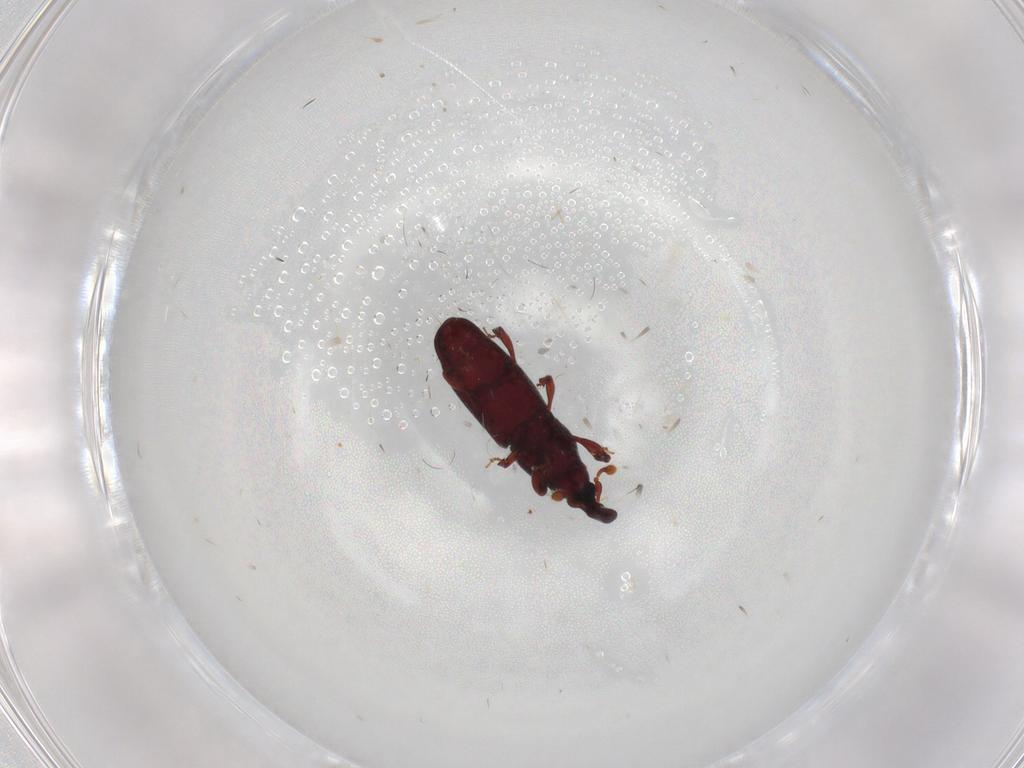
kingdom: Animalia
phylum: Arthropoda
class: Insecta
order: Coleoptera
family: Curculionidae
